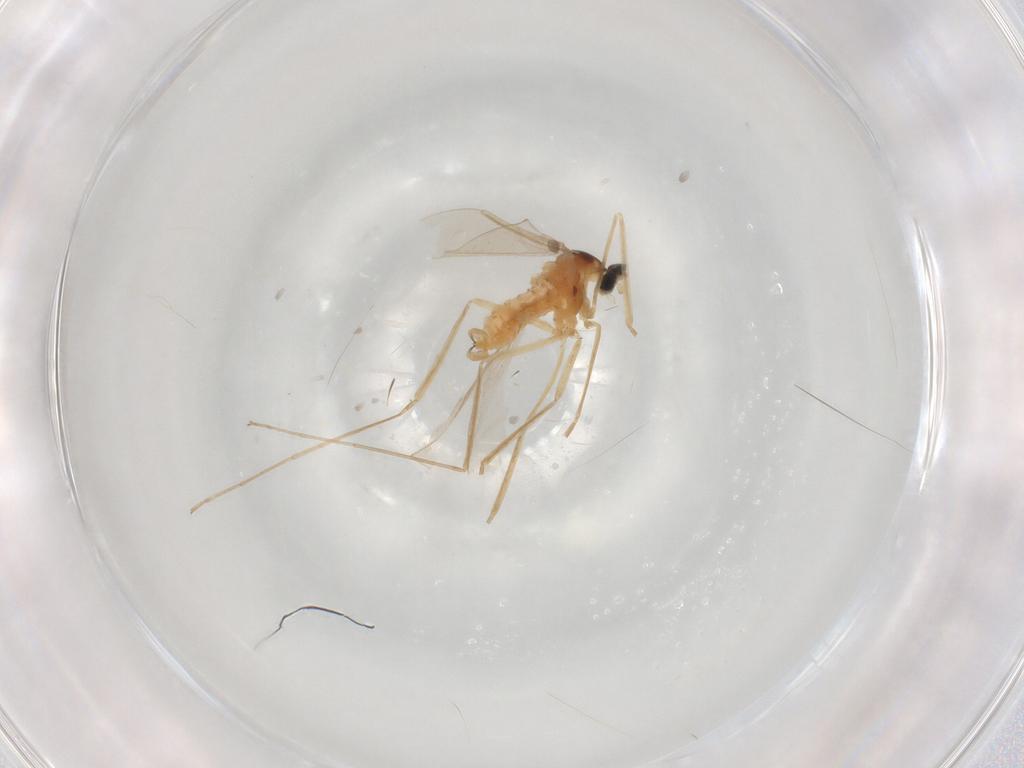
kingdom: Animalia
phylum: Arthropoda
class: Insecta
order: Diptera
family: Cecidomyiidae
